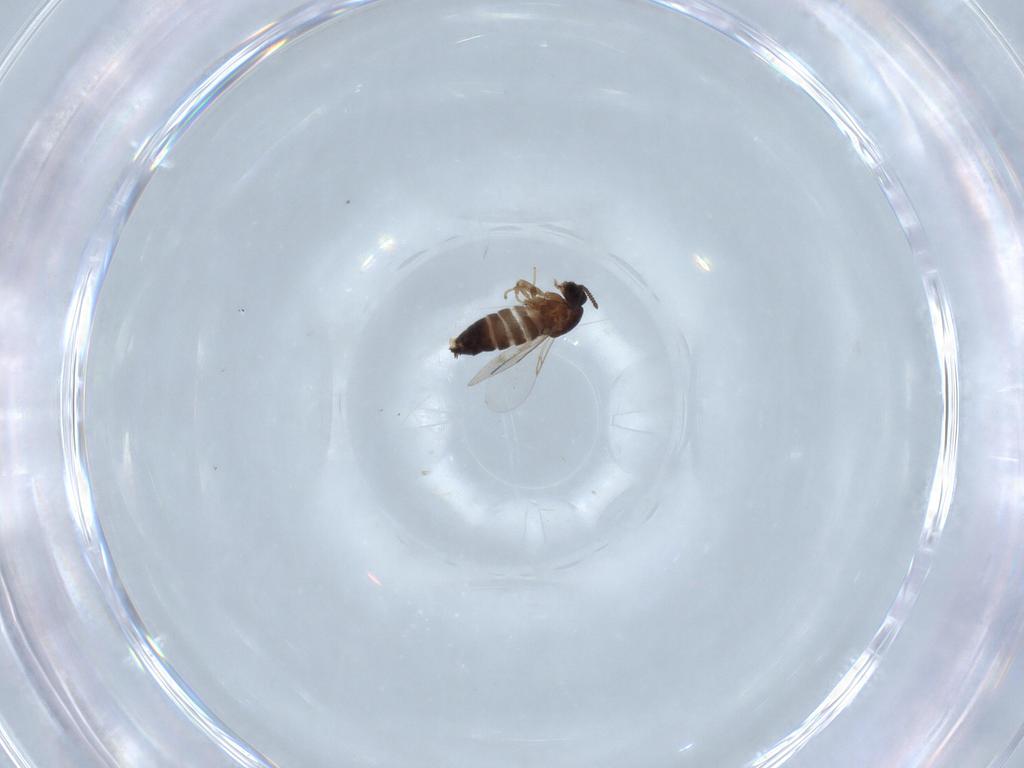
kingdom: Animalia
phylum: Arthropoda
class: Insecta
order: Diptera
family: Scatopsidae
